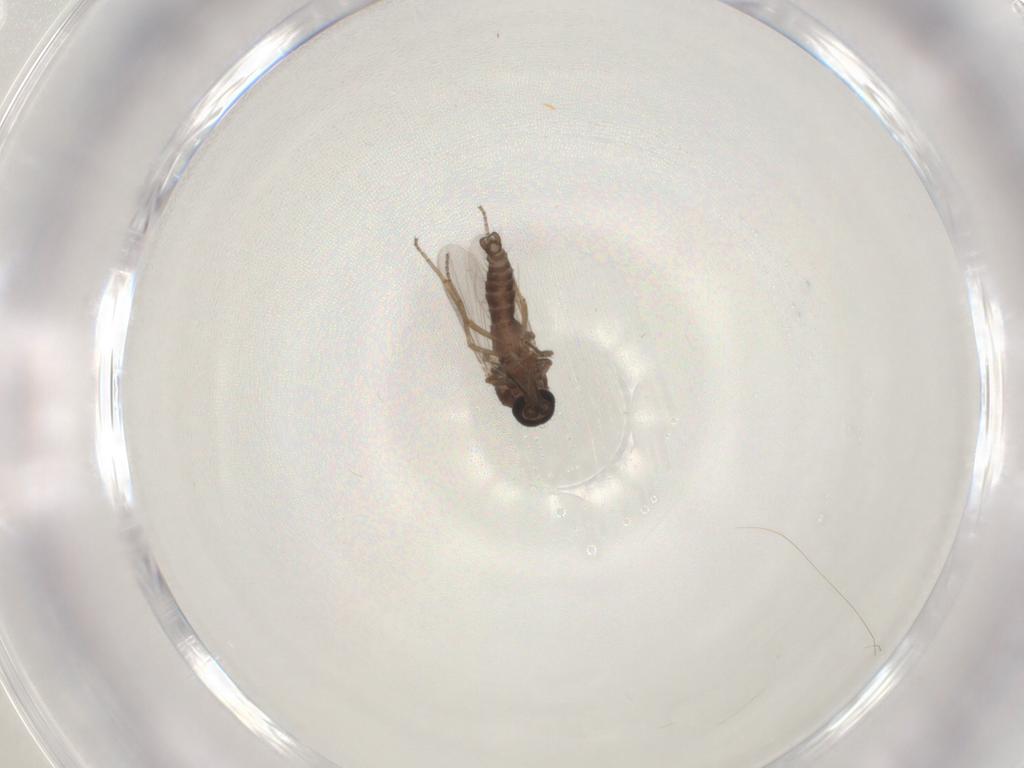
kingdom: Animalia
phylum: Arthropoda
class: Insecta
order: Diptera
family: Ceratopogonidae
